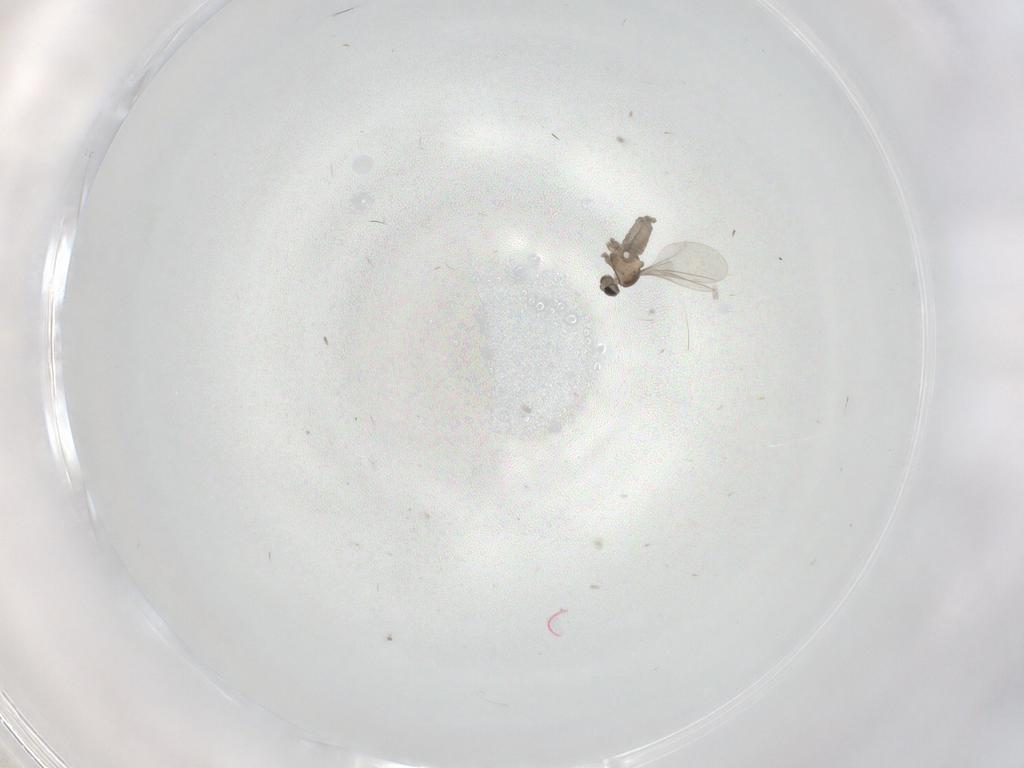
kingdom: Animalia
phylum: Arthropoda
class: Insecta
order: Diptera
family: Cecidomyiidae
